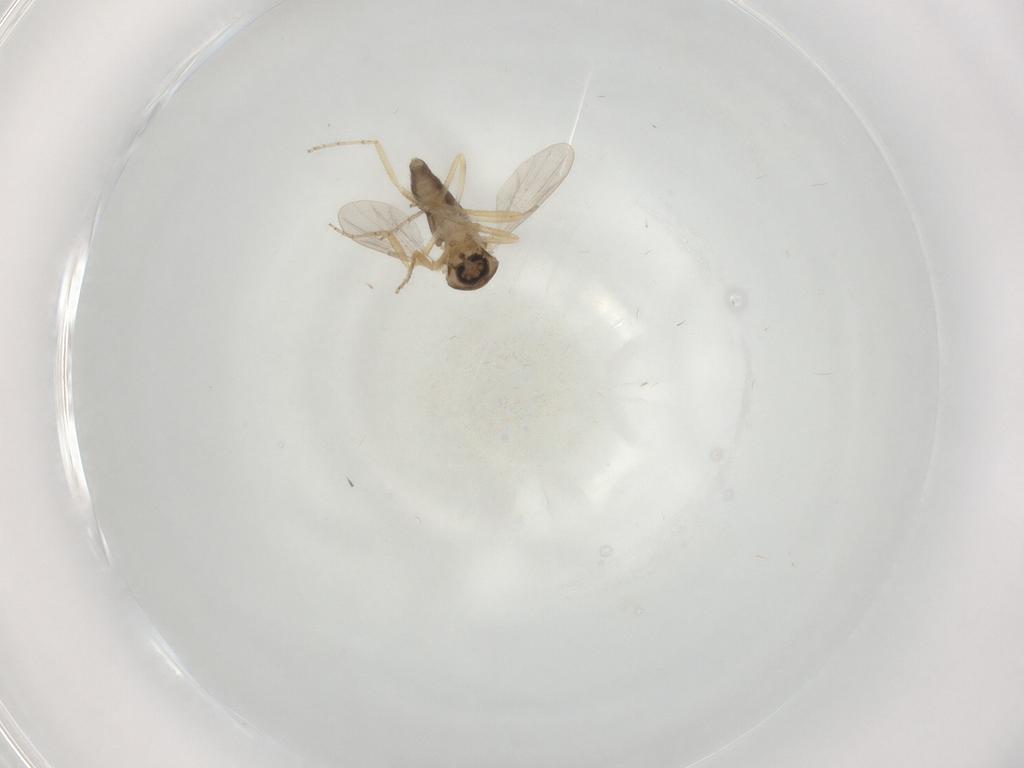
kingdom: Animalia
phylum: Arthropoda
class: Insecta
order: Diptera
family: Ceratopogonidae
